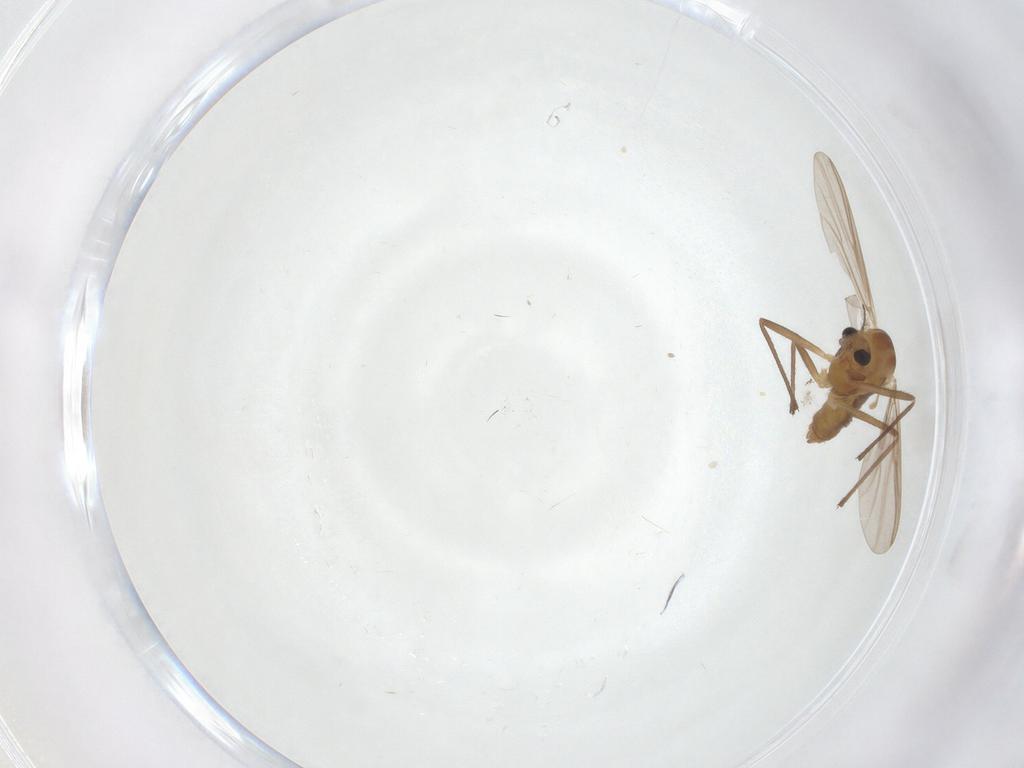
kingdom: Animalia
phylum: Arthropoda
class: Insecta
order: Diptera
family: Chironomidae
